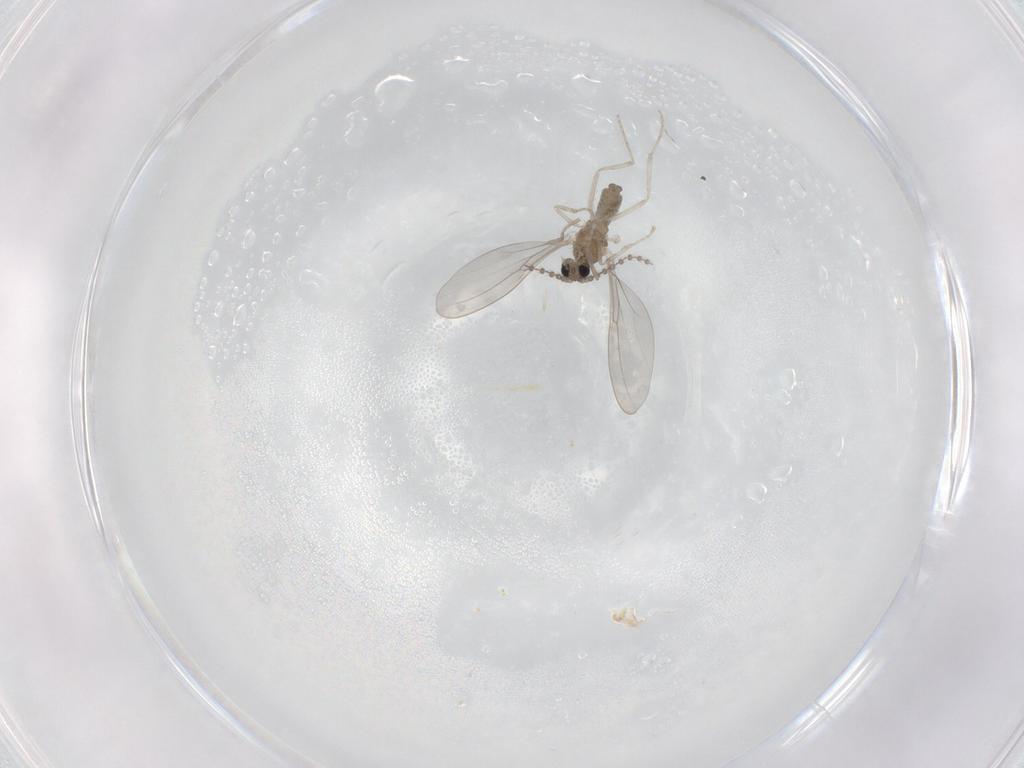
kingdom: Animalia
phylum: Arthropoda
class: Insecta
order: Diptera
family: Cecidomyiidae
